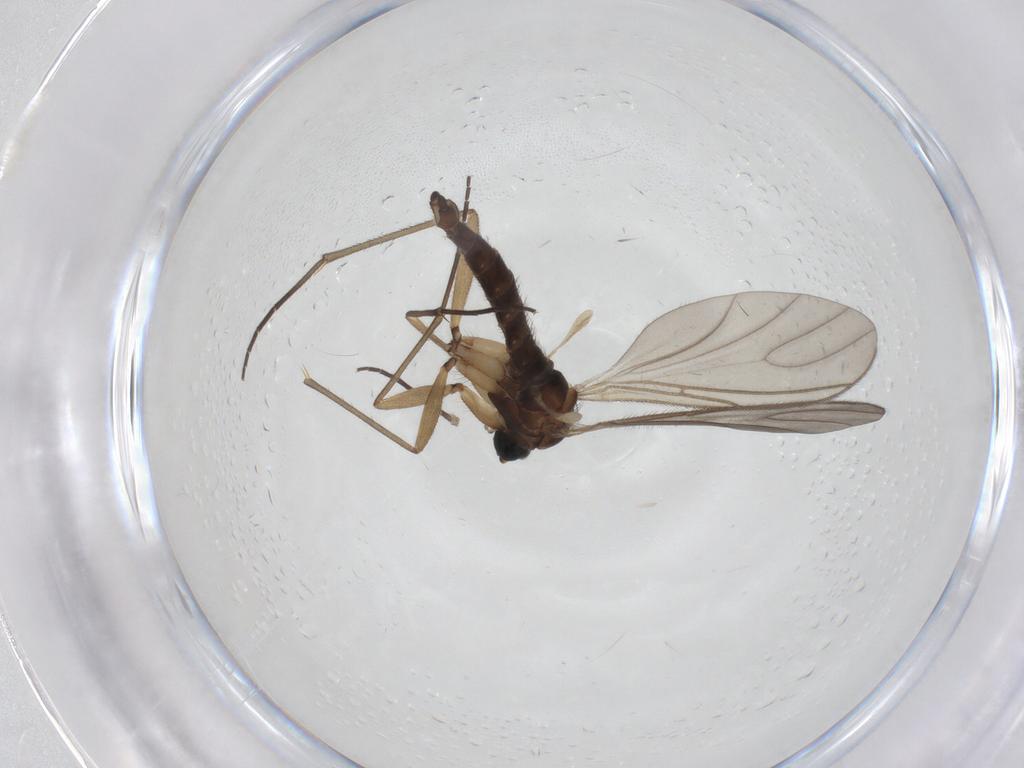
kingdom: Animalia
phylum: Arthropoda
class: Insecta
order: Diptera
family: Sciaridae
